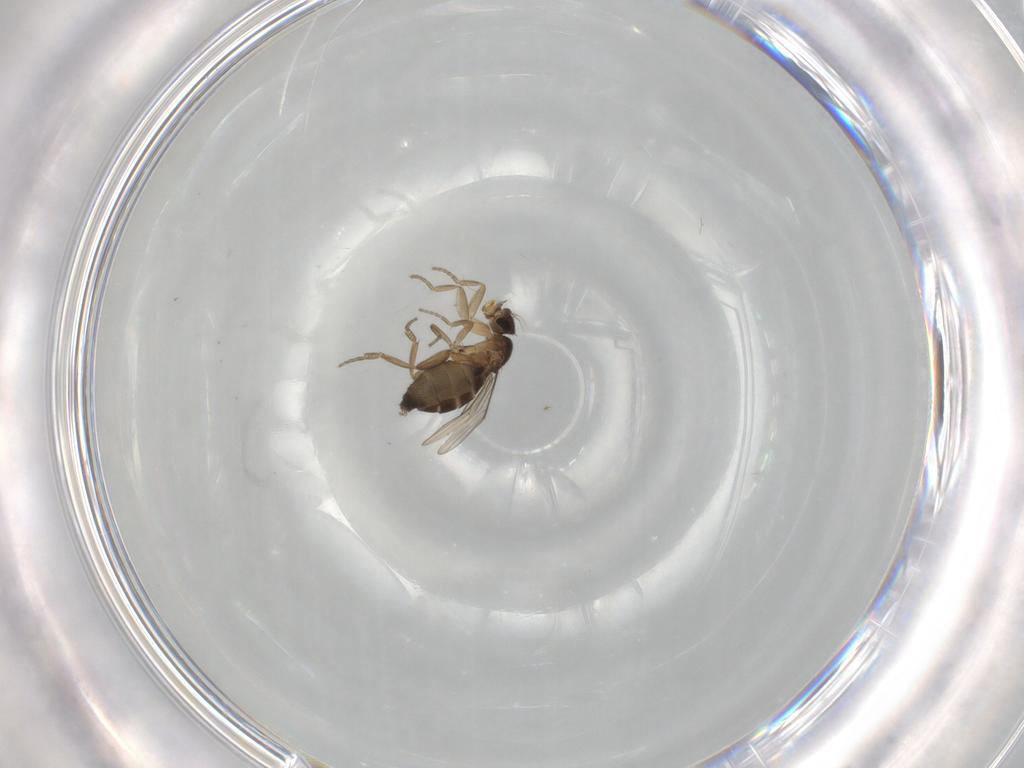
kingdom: Animalia
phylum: Arthropoda
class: Insecta
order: Diptera
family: Phoridae
